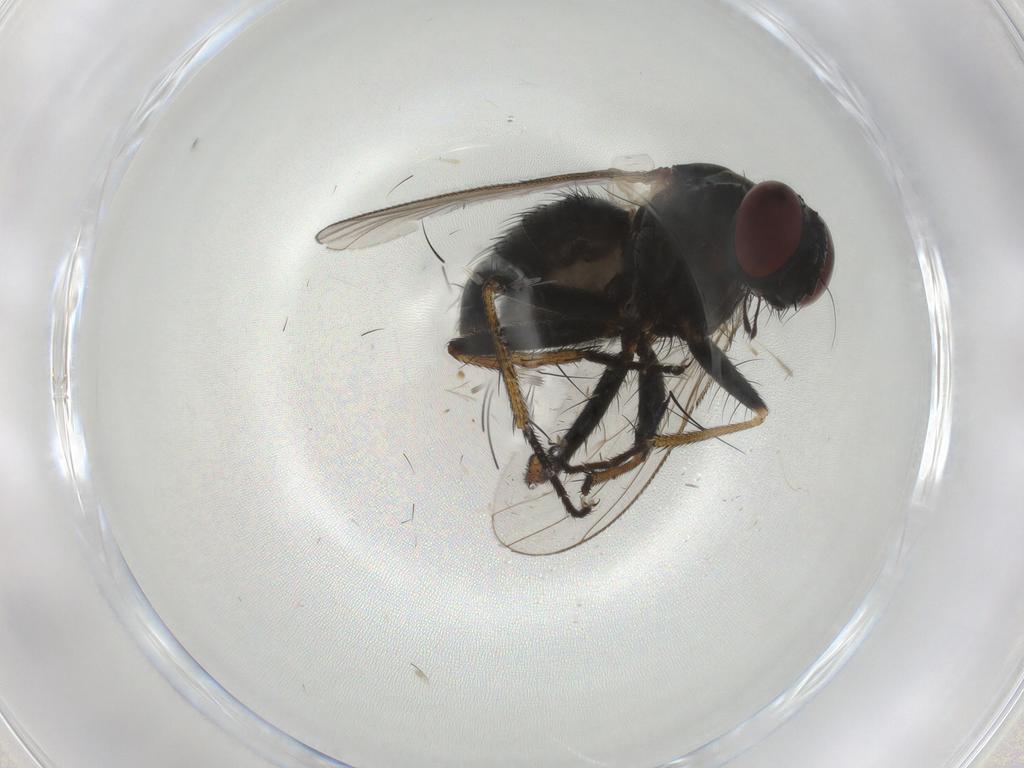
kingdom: Animalia
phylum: Arthropoda
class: Insecta
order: Diptera
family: Muscidae
